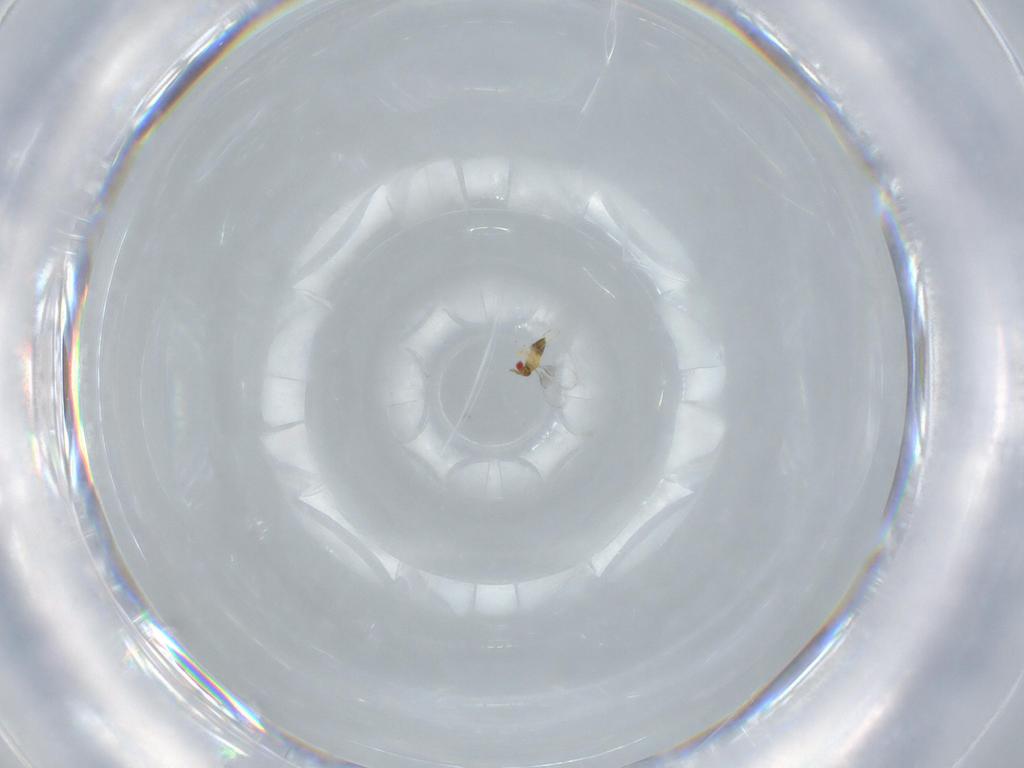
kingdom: Animalia
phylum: Arthropoda
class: Insecta
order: Hymenoptera
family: Trichogrammatidae
